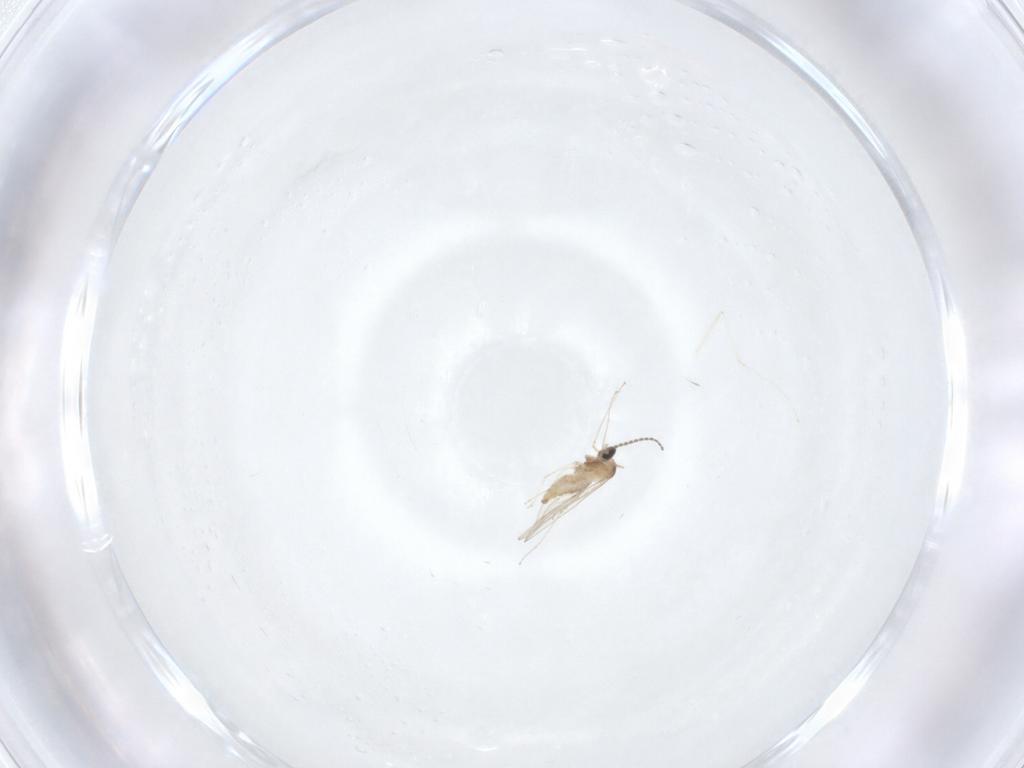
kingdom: Animalia
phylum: Arthropoda
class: Insecta
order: Diptera
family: Cecidomyiidae
